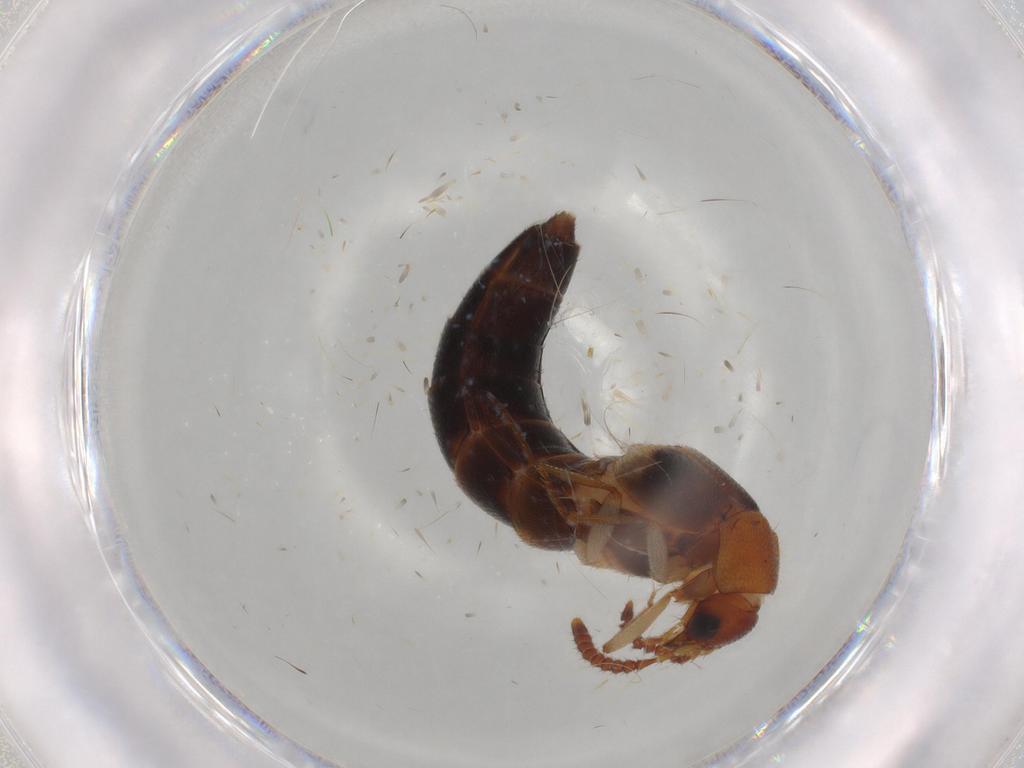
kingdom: Animalia
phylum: Arthropoda
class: Insecta
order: Coleoptera
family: Staphylinidae
